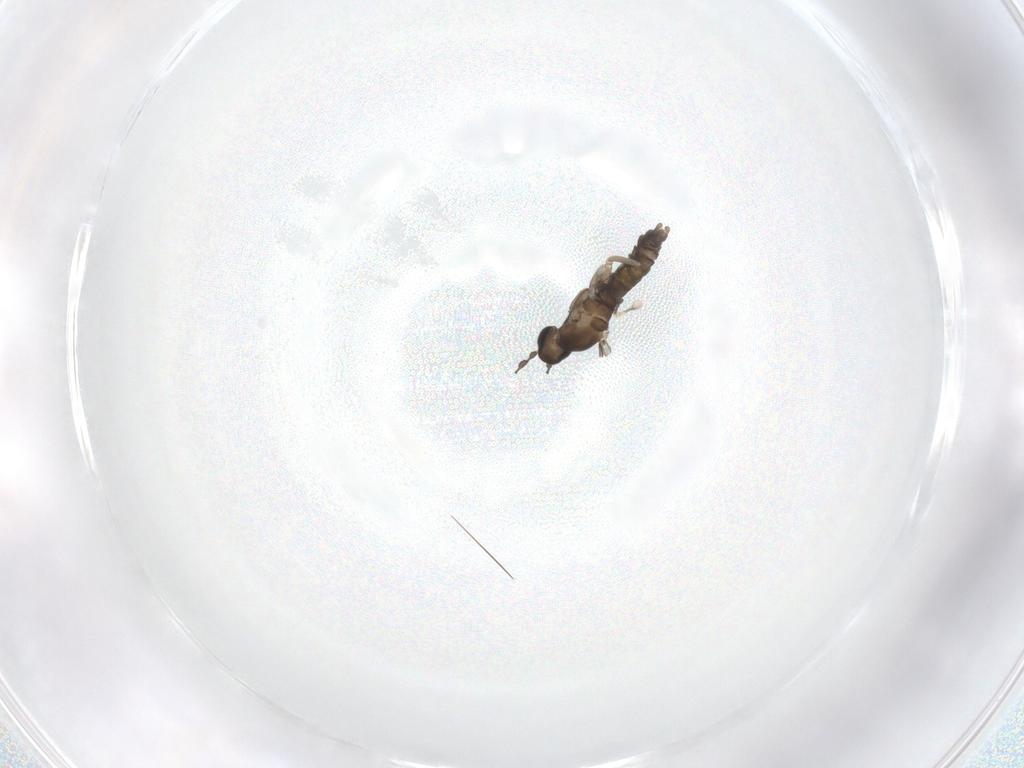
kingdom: Animalia
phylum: Arthropoda
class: Insecta
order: Diptera
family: Cecidomyiidae
